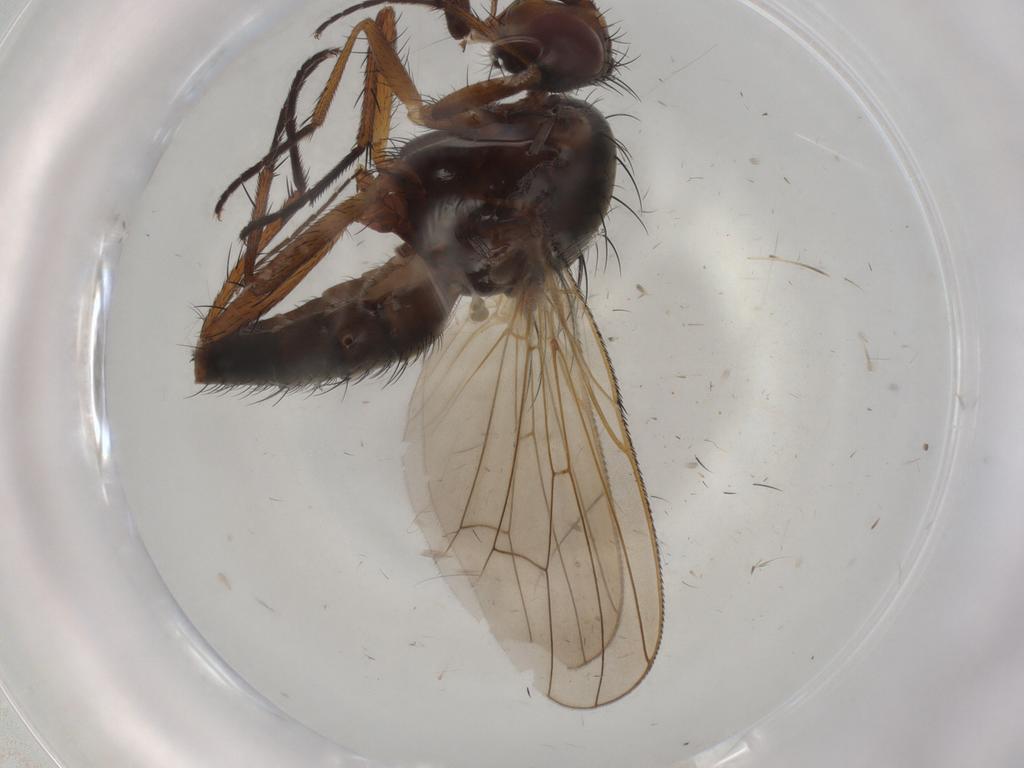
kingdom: Animalia
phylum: Arthropoda
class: Insecta
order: Diptera
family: Anthomyiidae
